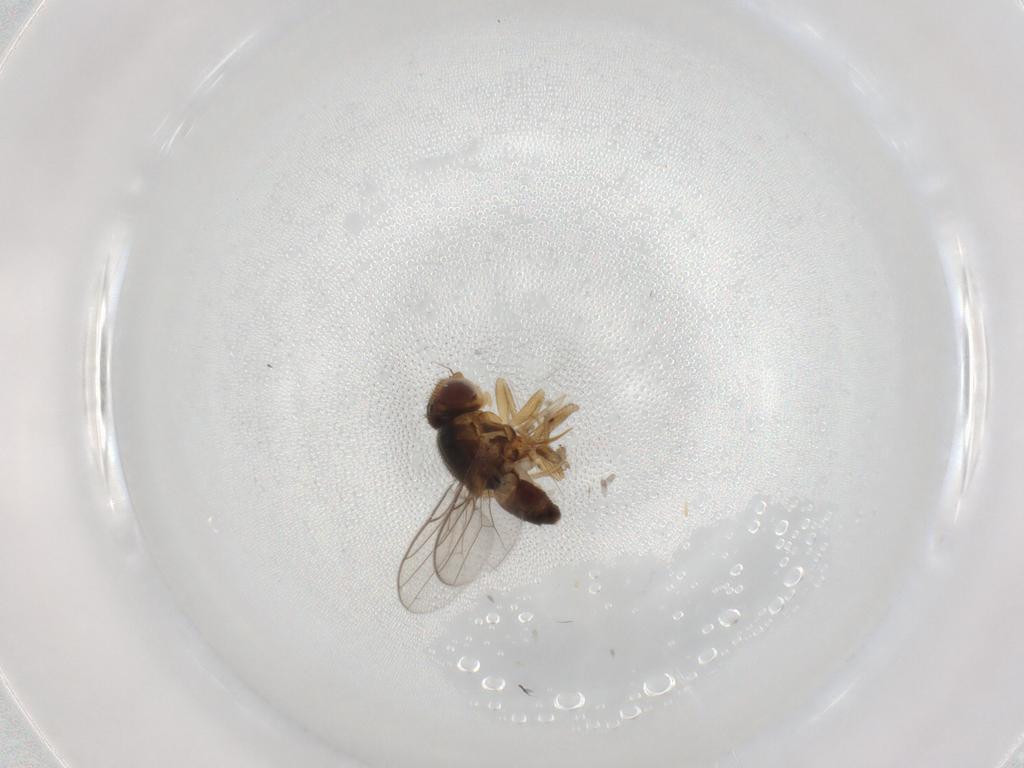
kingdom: Animalia
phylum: Arthropoda
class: Insecta
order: Diptera
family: Chloropidae
